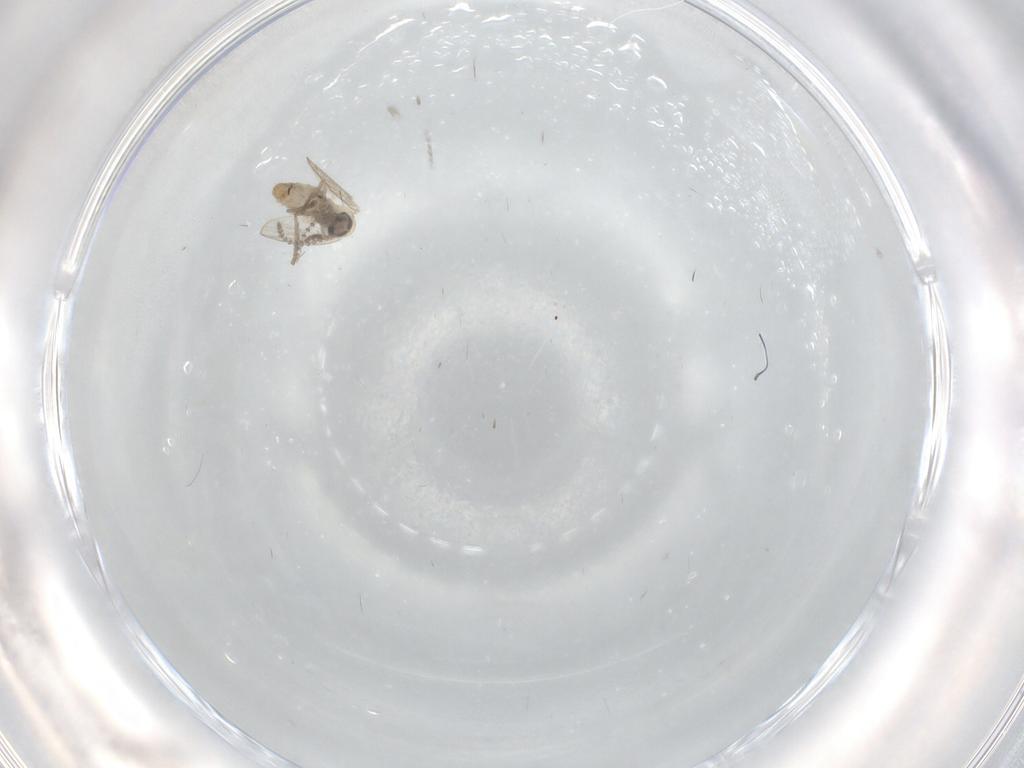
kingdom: Animalia
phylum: Arthropoda
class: Insecta
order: Diptera
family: Psychodidae
